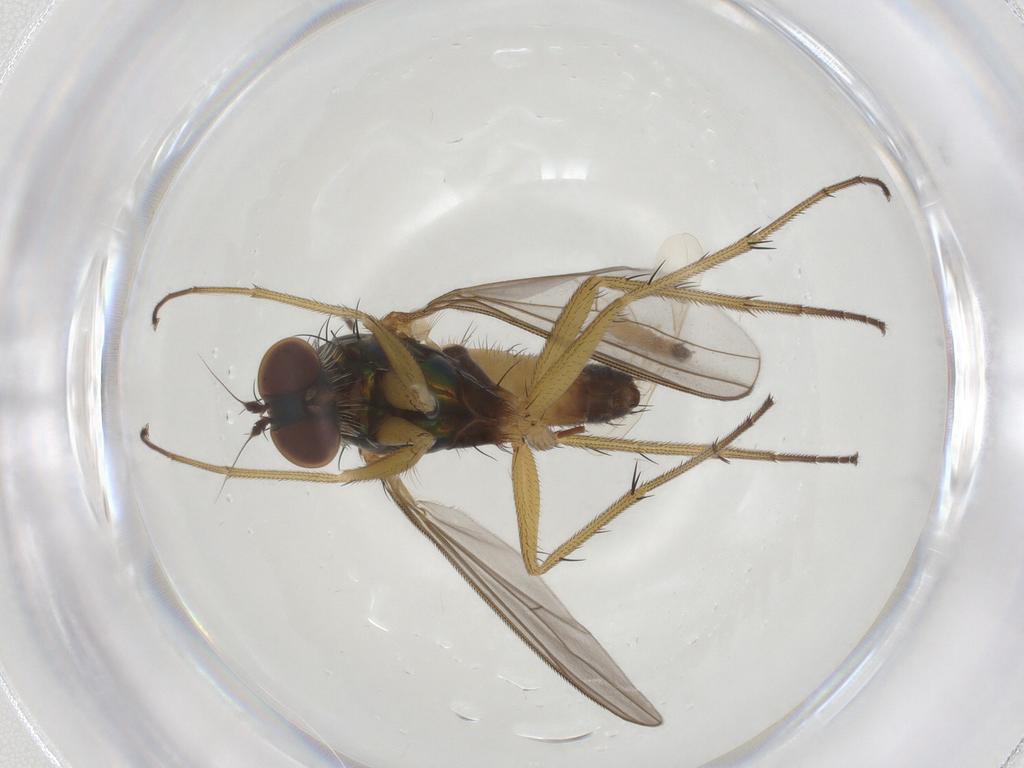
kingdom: Animalia
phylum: Arthropoda
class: Insecta
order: Diptera
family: Cecidomyiidae
